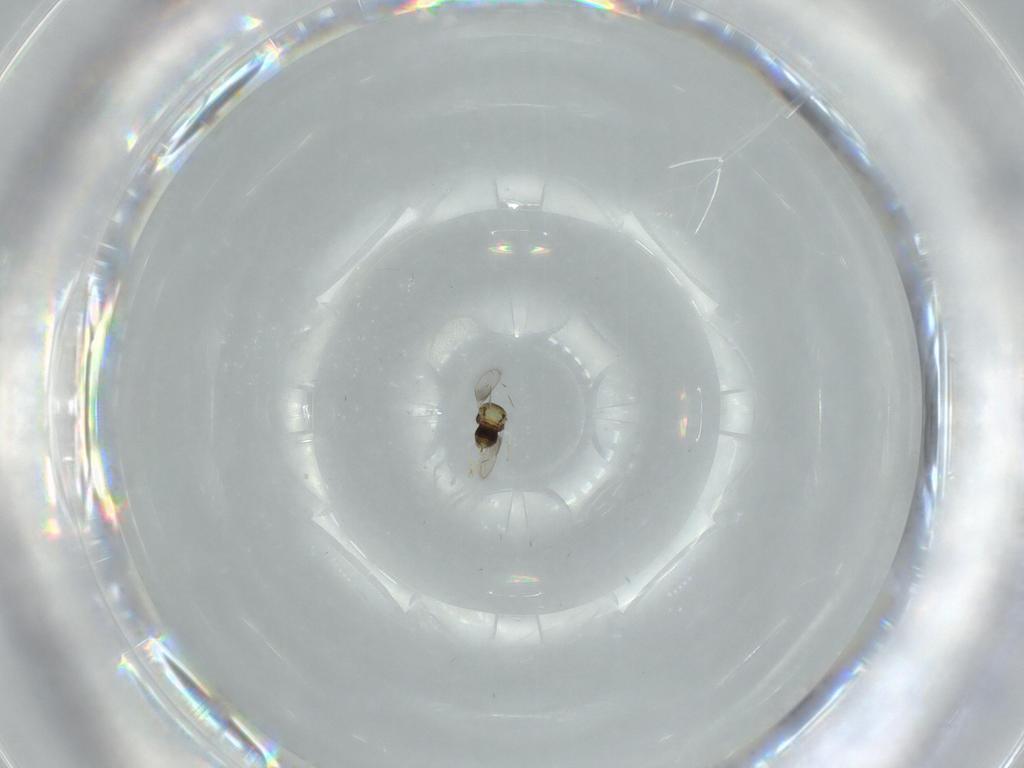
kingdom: Animalia
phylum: Arthropoda
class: Insecta
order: Hymenoptera
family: Aphelinidae
